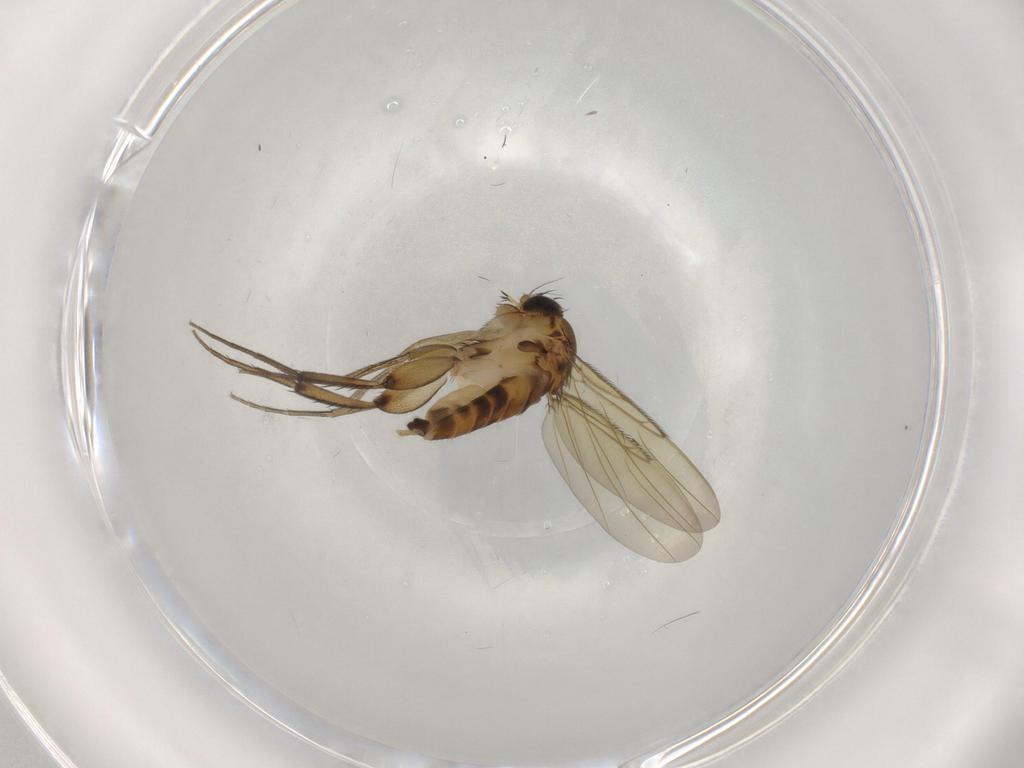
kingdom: Animalia
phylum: Arthropoda
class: Insecta
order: Diptera
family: Phoridae
